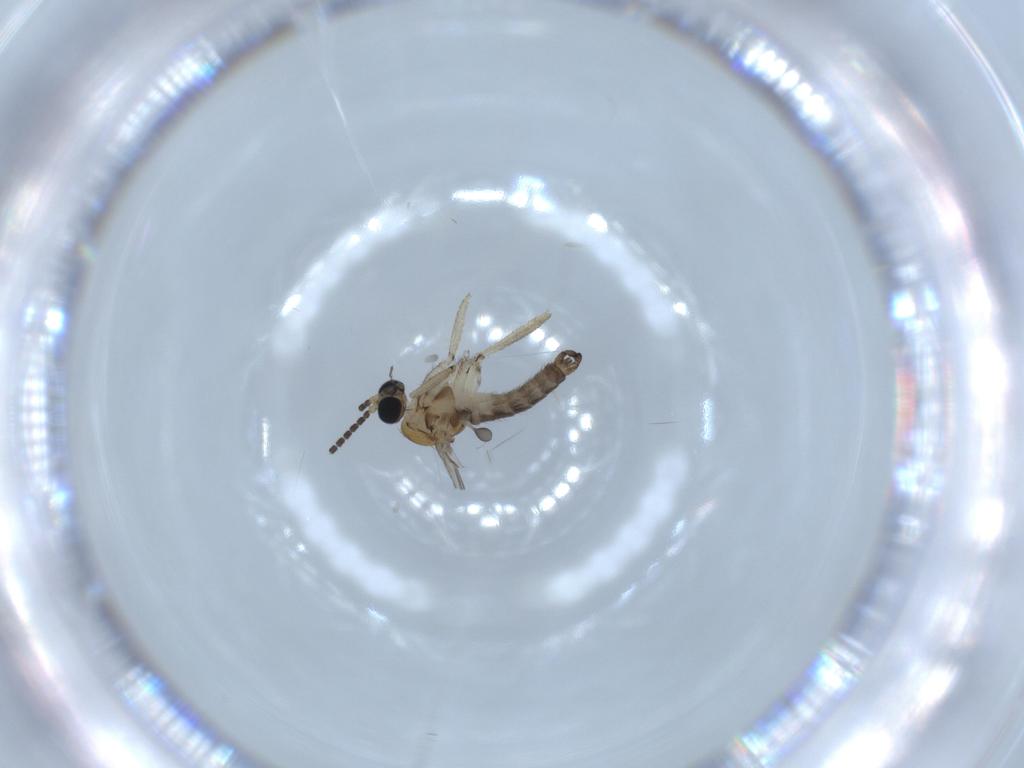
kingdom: Animalia
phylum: Arthropoda
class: Insecta
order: Diptera
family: Sciaridae
